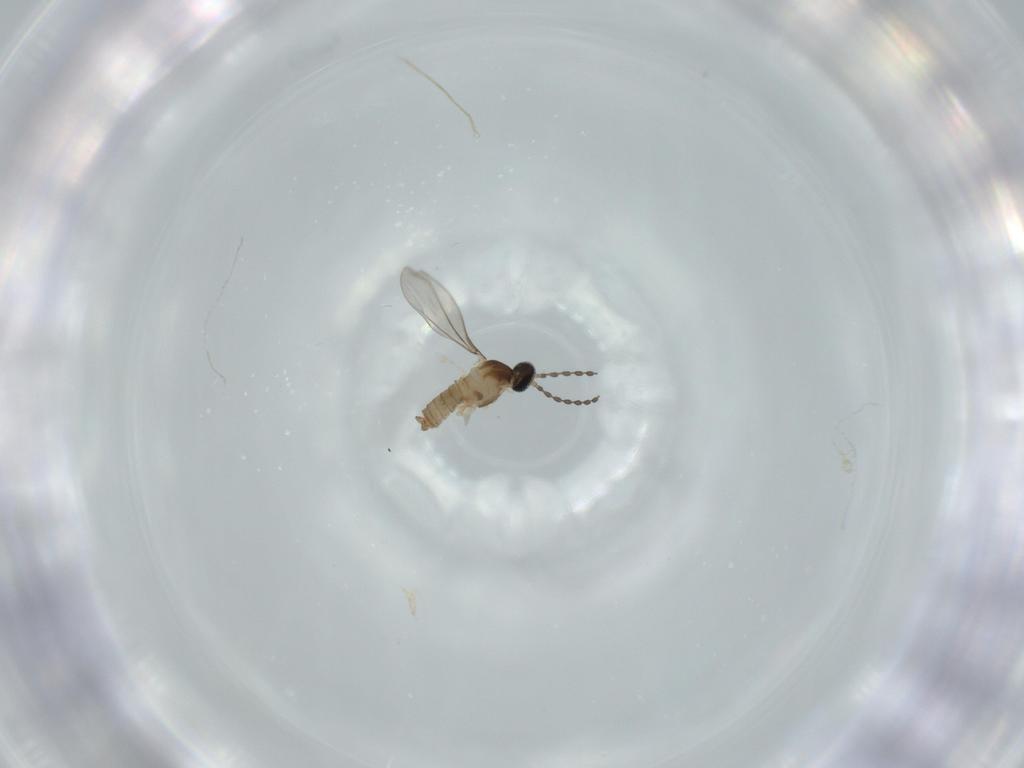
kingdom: Animalia
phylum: Arthropoda
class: Insecta
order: Diptera
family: Cecidomyiidae
